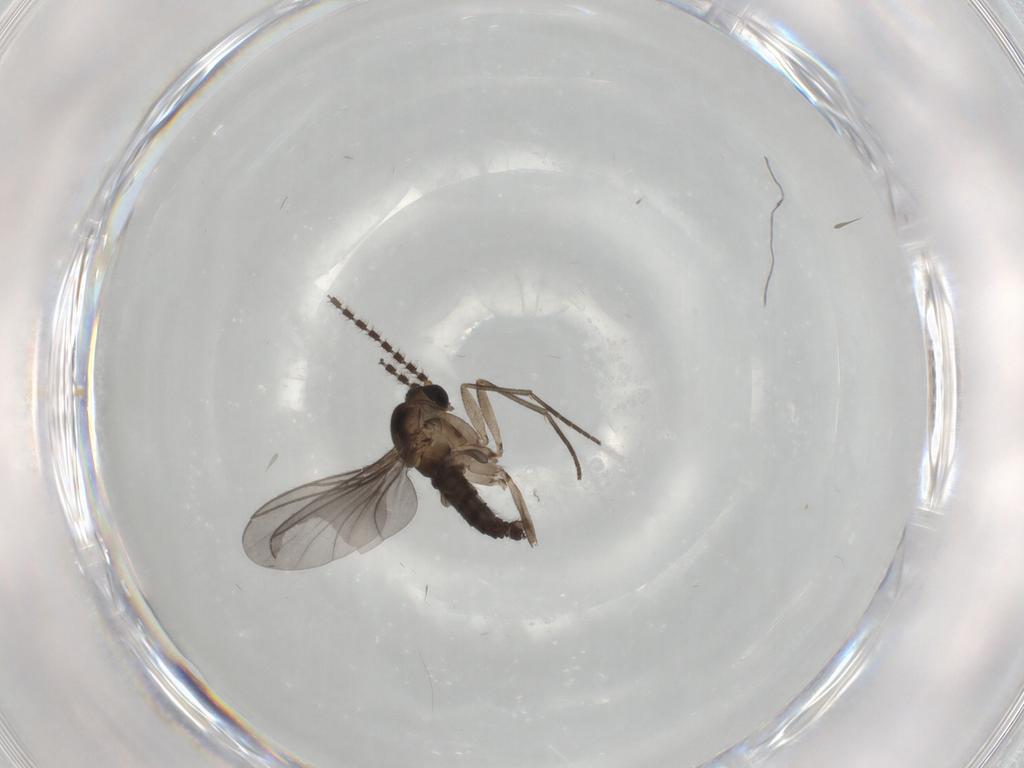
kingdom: Animalia
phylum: Arthropoda
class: Insecta
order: Diptera
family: Sciaridae
